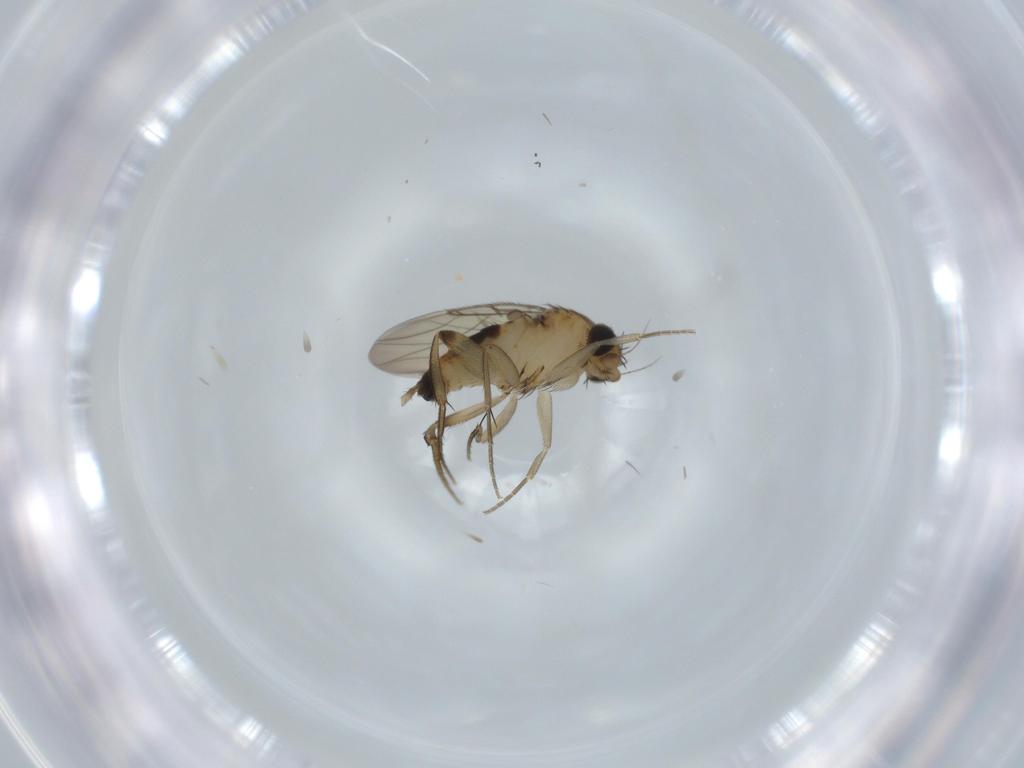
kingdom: Animalia
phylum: Arthropoda
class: Insecta
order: Diptera
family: Phoridae
